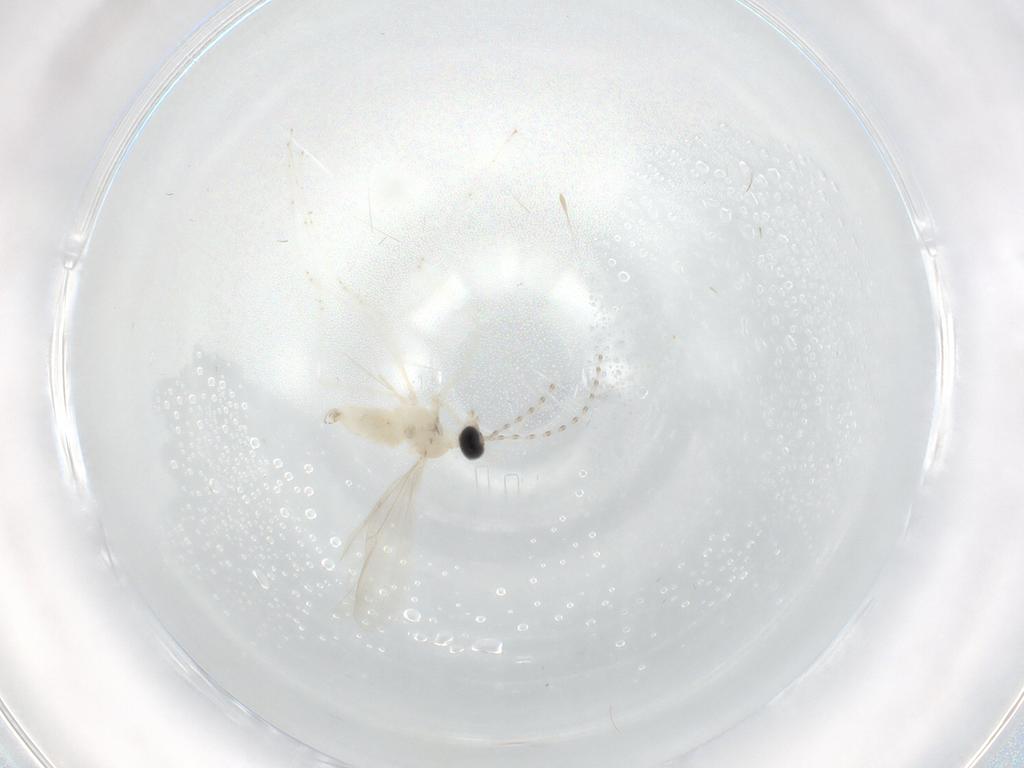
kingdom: Animalia
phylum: Arthropoda
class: Insecta
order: Diptera
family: Cecidomyiidae
